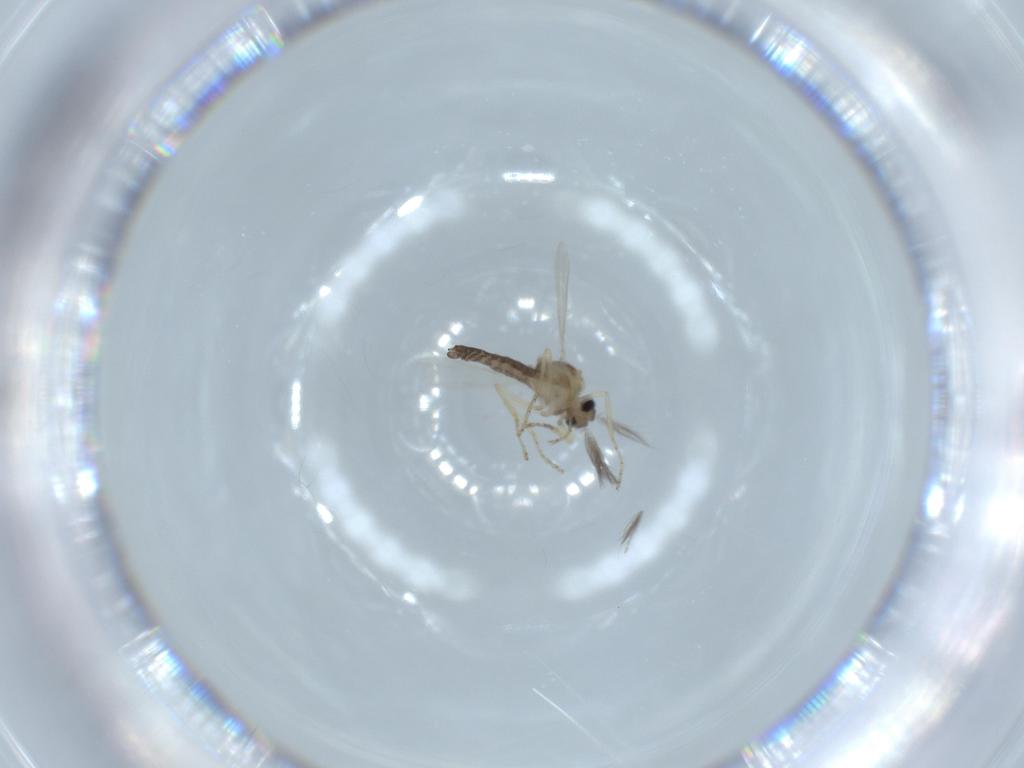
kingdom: Animalia
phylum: Arthropoda
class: Insecta
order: Diptera
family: Ceratopogonidae
